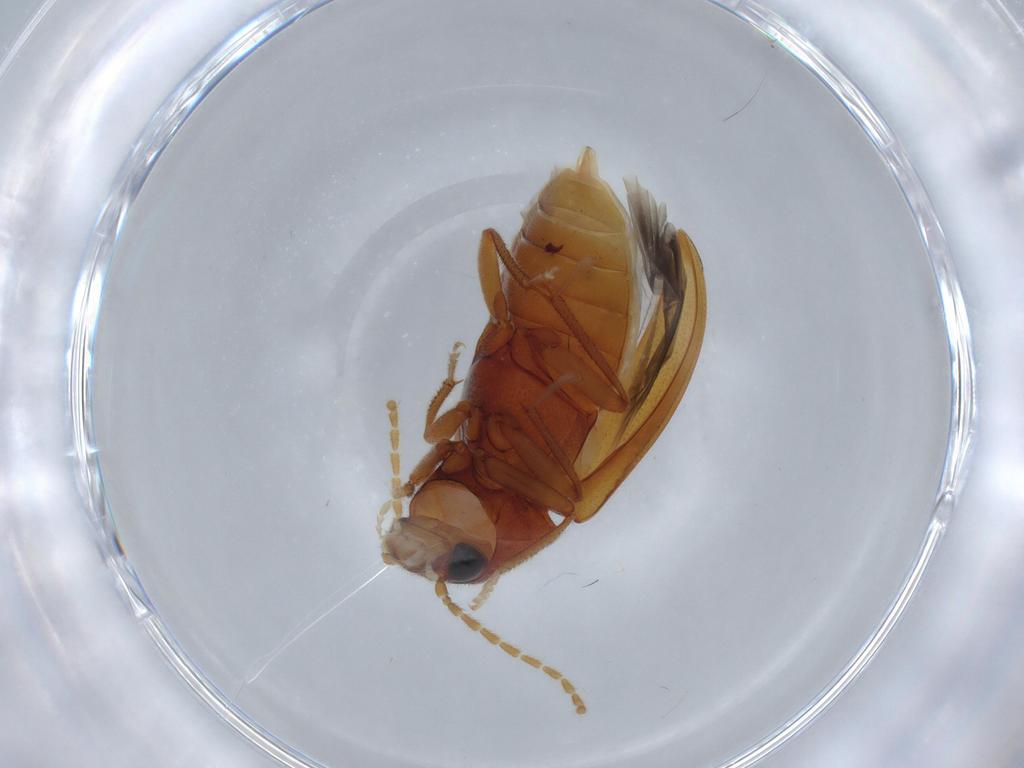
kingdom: Animalia
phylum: Arthropoda
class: Insecta
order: Coleoptera
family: Ptilodactylidae
